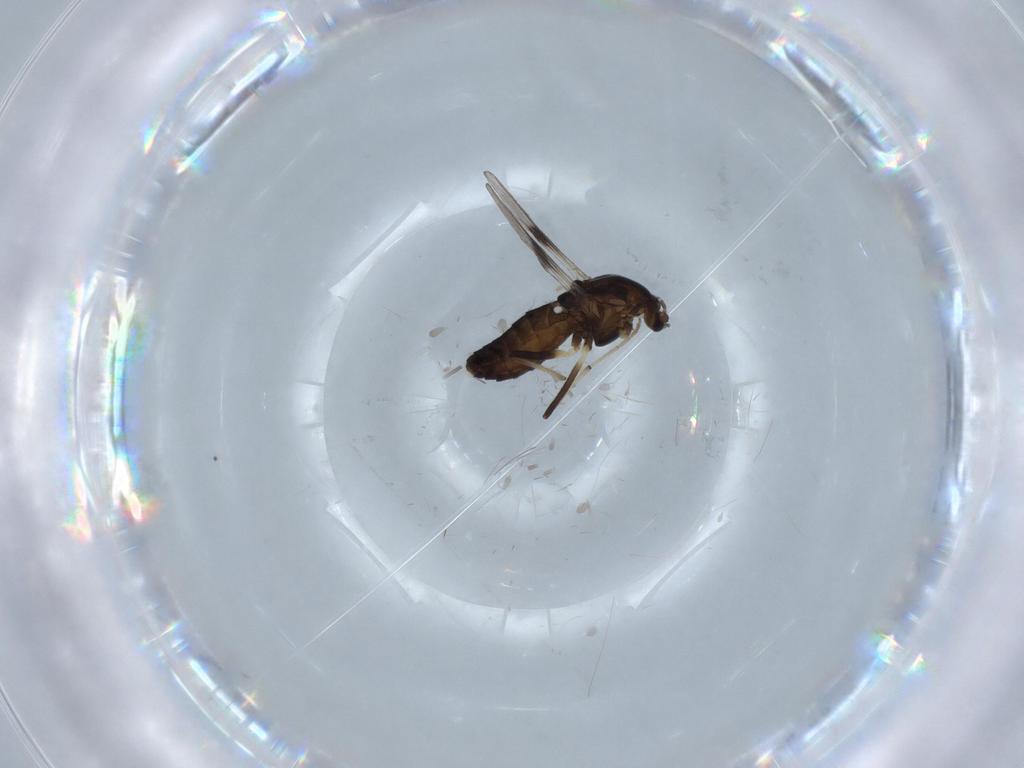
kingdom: Animalia
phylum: Arthropoda
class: Insecta
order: Diptera
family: Chironomidae
